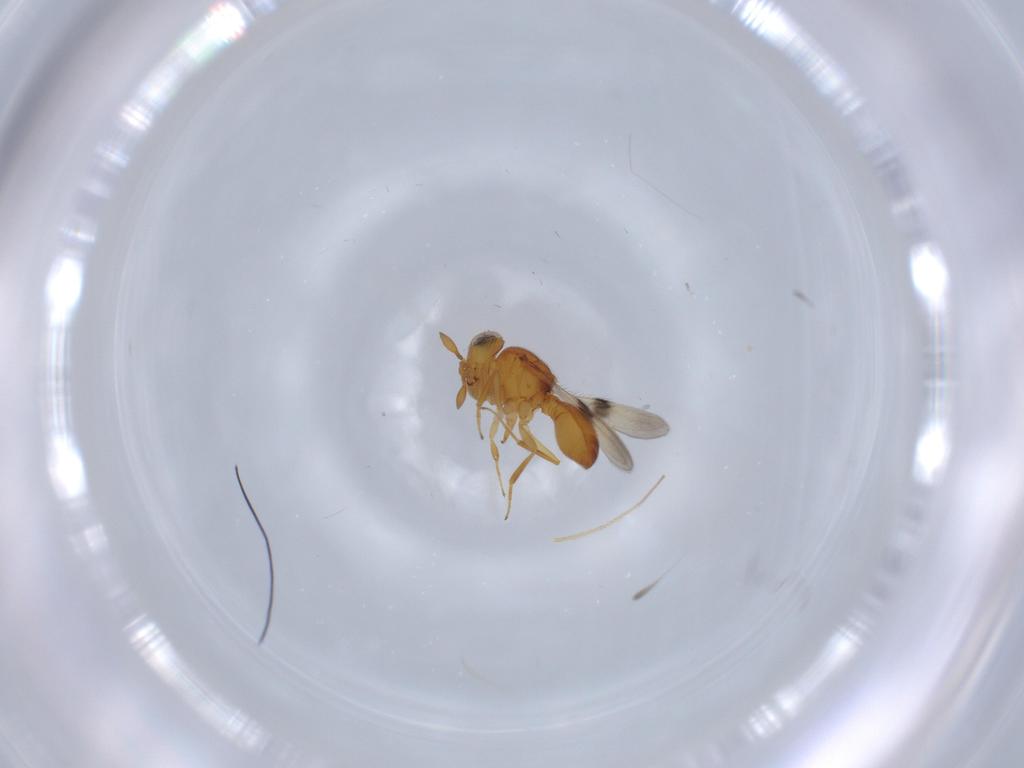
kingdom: Animalia
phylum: Arthropoda
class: Insecta
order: Hymenoptera
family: Scelionidae
